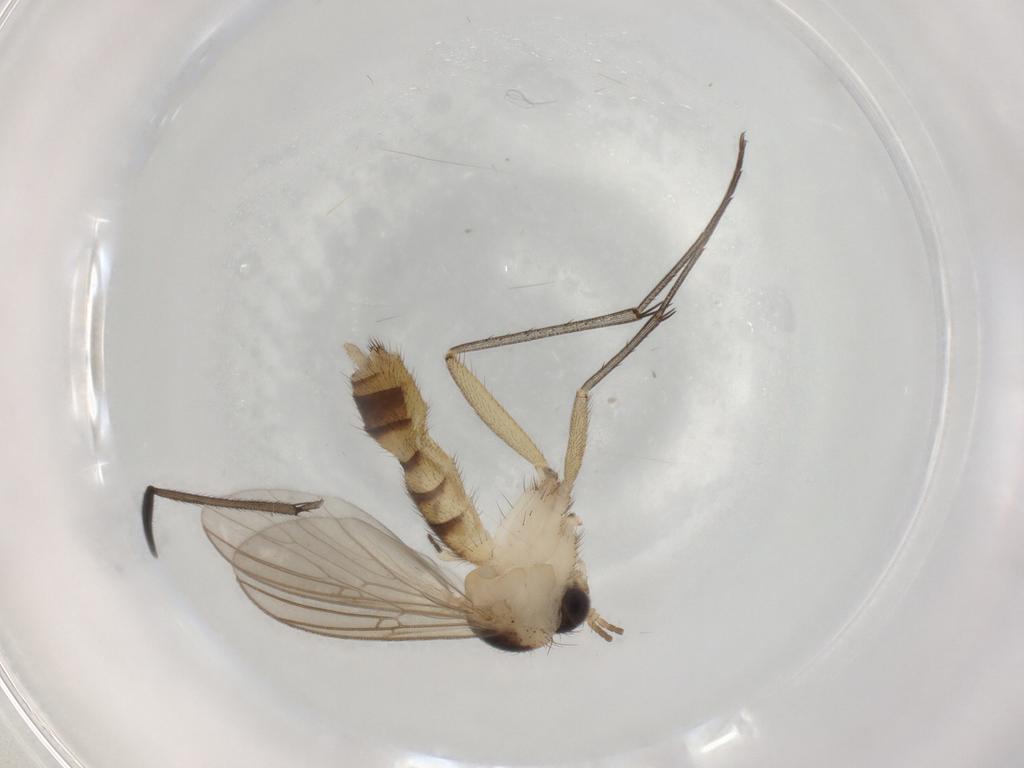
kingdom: Animalia
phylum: Arthropoda
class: Insecta
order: Diptera
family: Mycetophilidae
